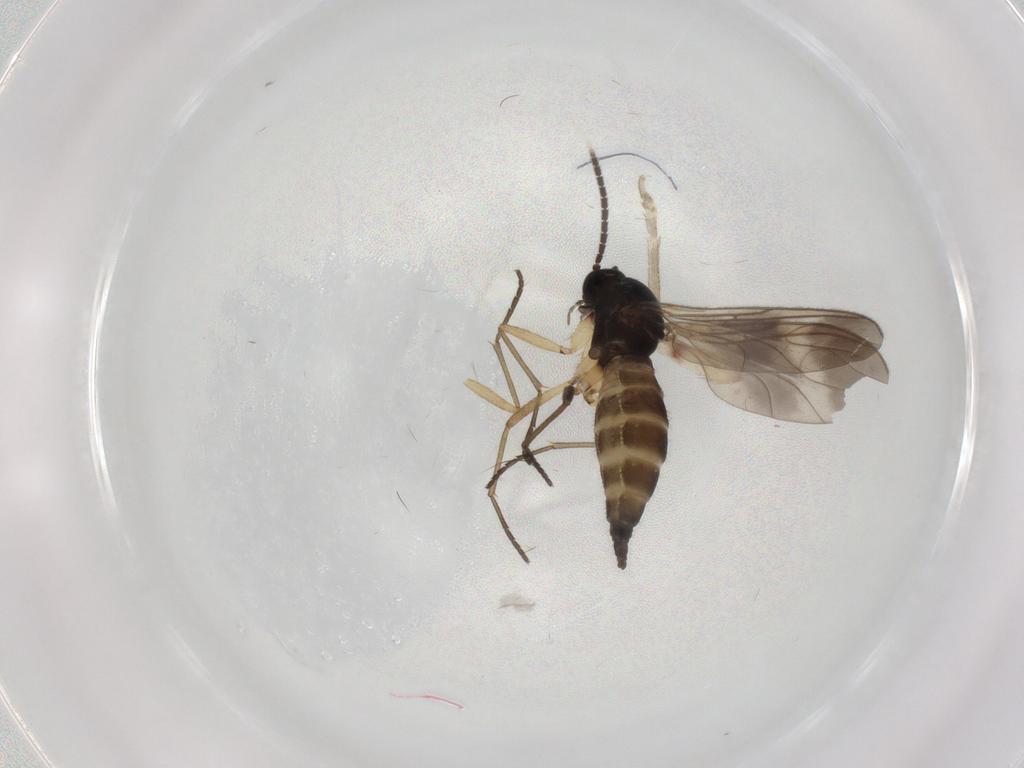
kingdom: Animalia
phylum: Arthropoda
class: Insecta
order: Diptera
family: Sciaridae
